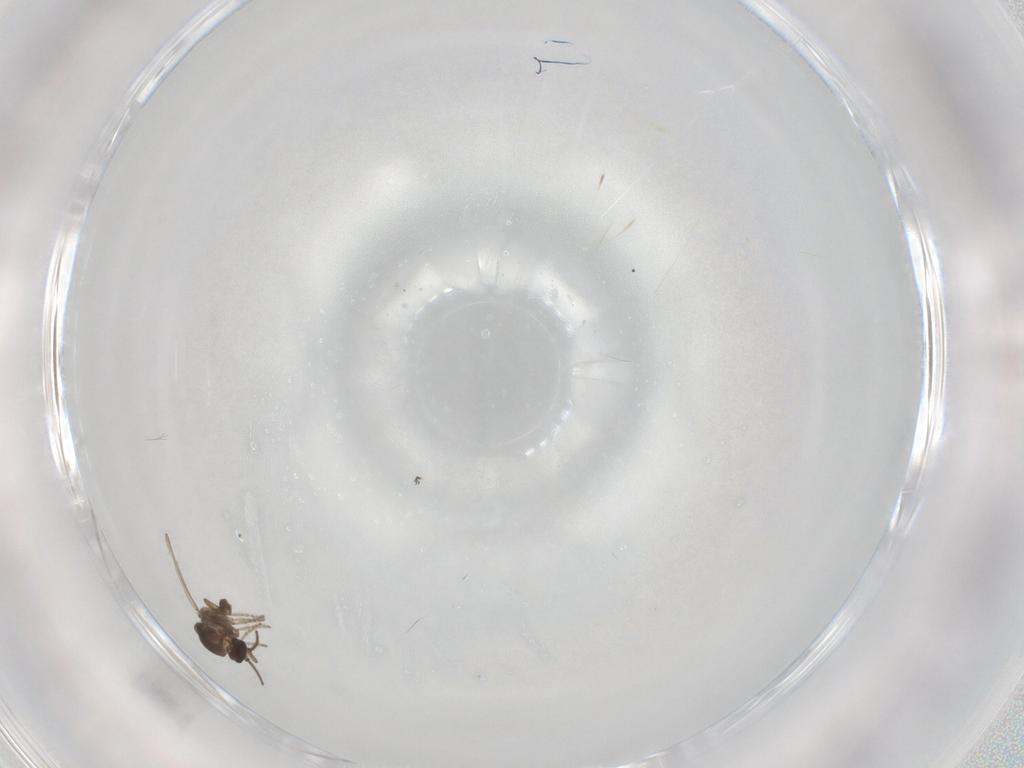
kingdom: Animalia
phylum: Arthropoda
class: Insecta
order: Diptera
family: Ceratopogonidae
